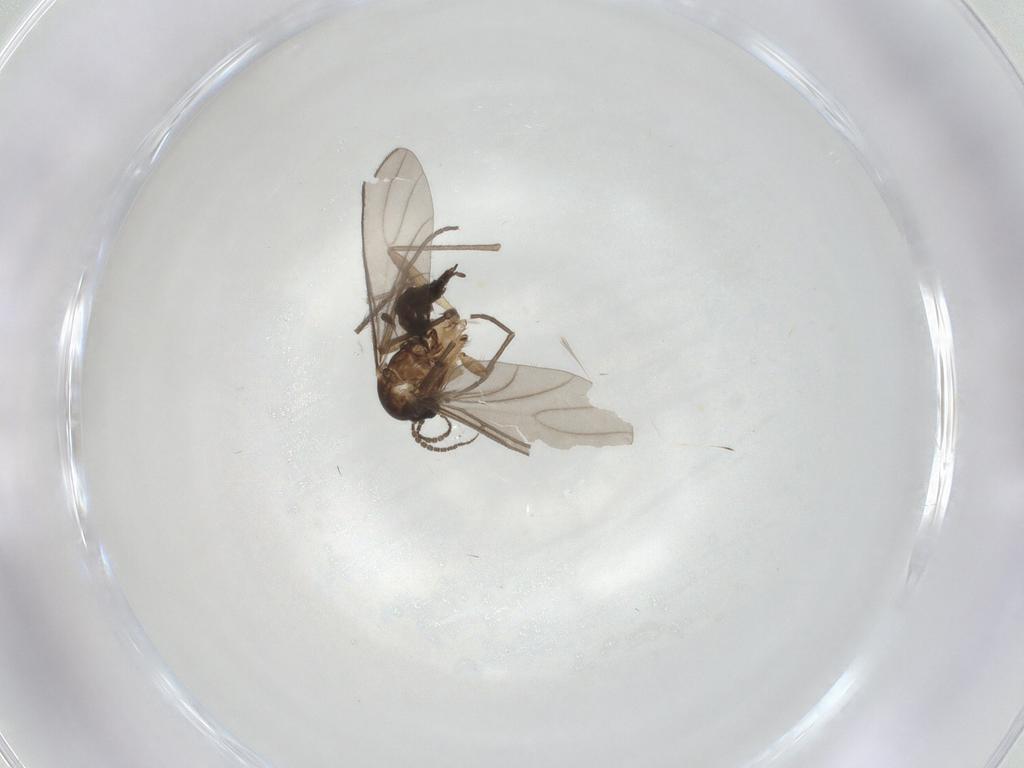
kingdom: Animalia
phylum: Arthropoda
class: Insecta
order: Diptera
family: Sciaridae
